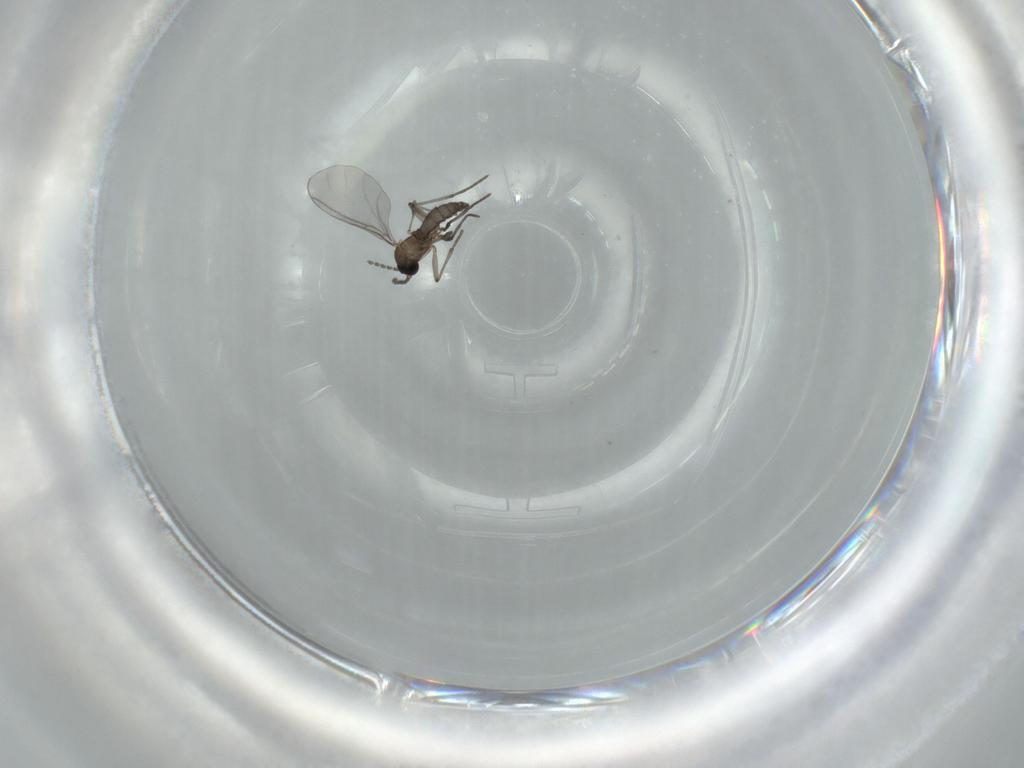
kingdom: Animalia
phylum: Arthropoda
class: Insecta
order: Diptera
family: Sciaridae
